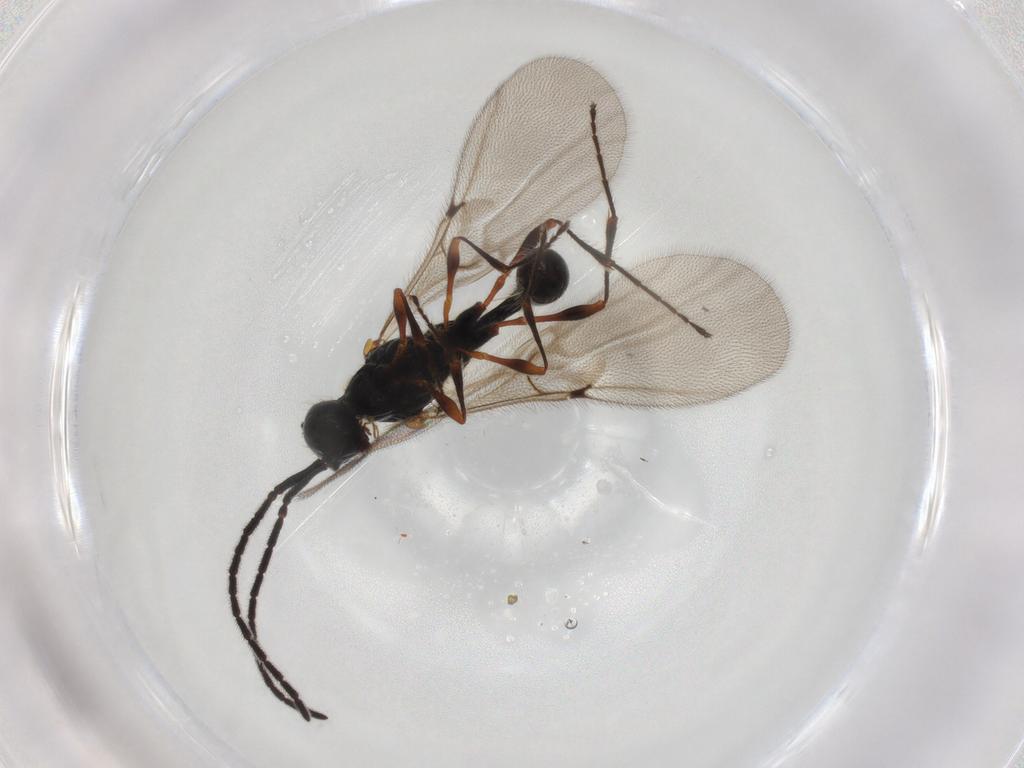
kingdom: Animalia
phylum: Arthropoda
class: Insecta
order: Hymenoptera
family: Diapriidae
